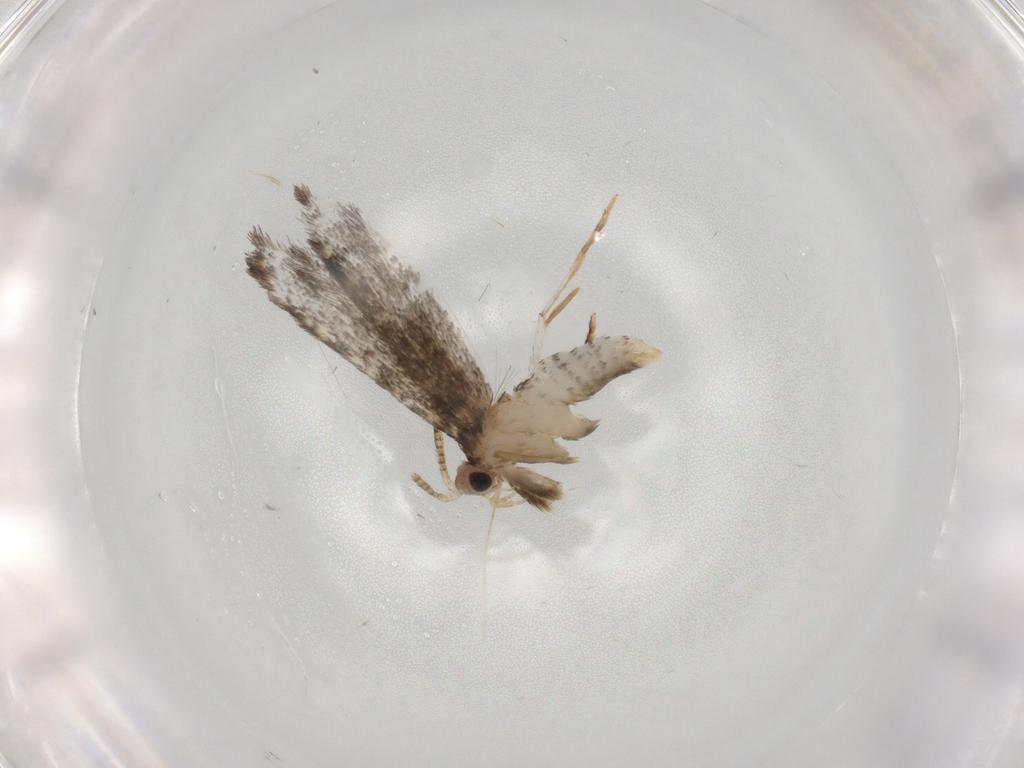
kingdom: Animalia
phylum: Arthropoda
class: Insecta
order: Lepidoptera
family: Tineidae
